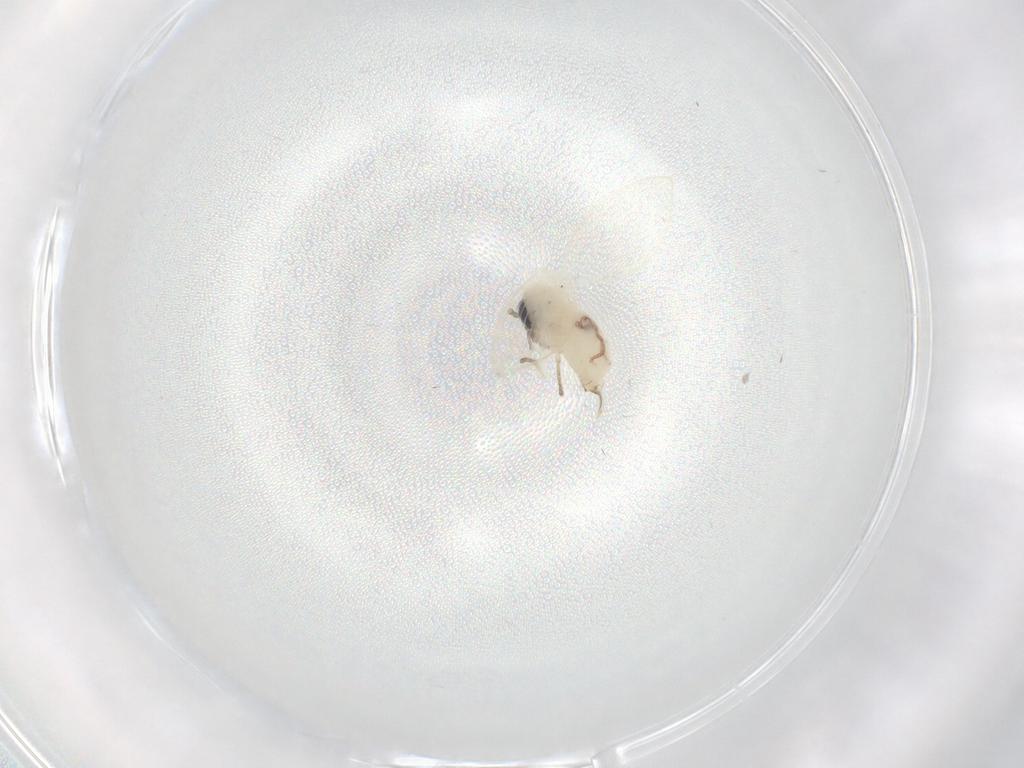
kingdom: Animalia
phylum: Arthropoda
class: Insecta
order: Diptera
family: Psychodidae
